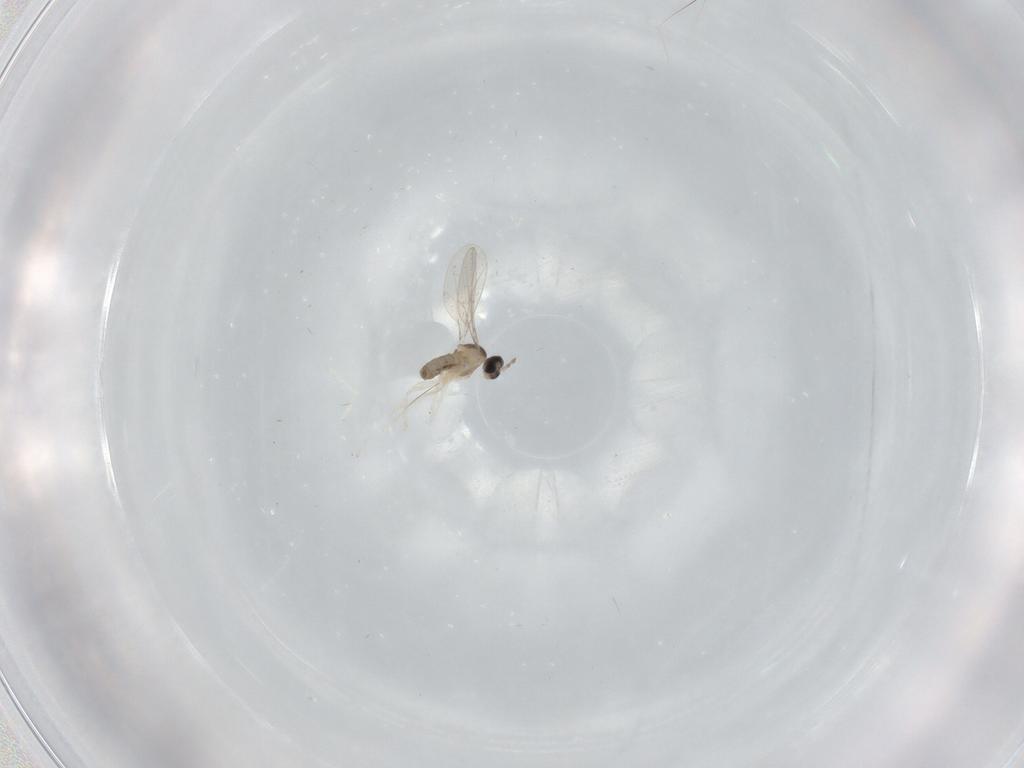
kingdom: Animalia
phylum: Arthropoda
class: Insecta
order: Diptera
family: Cecidomyiidae
